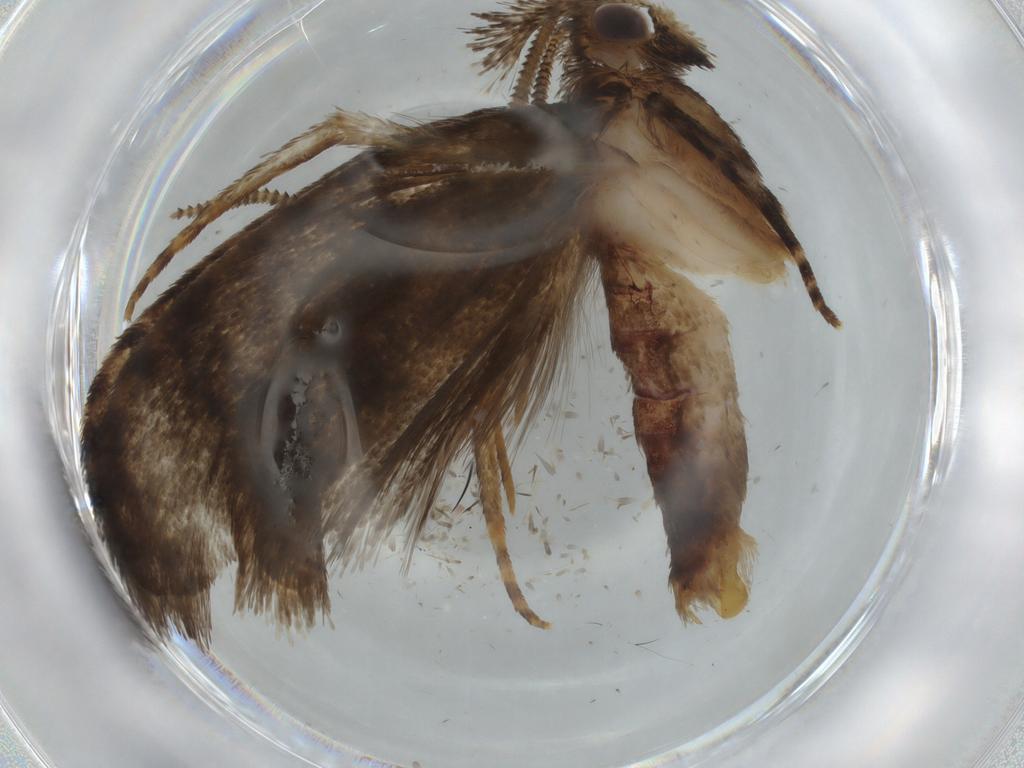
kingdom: Animalia
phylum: Arthropoda
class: Insecta
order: Lepidoptera
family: Tineidae
